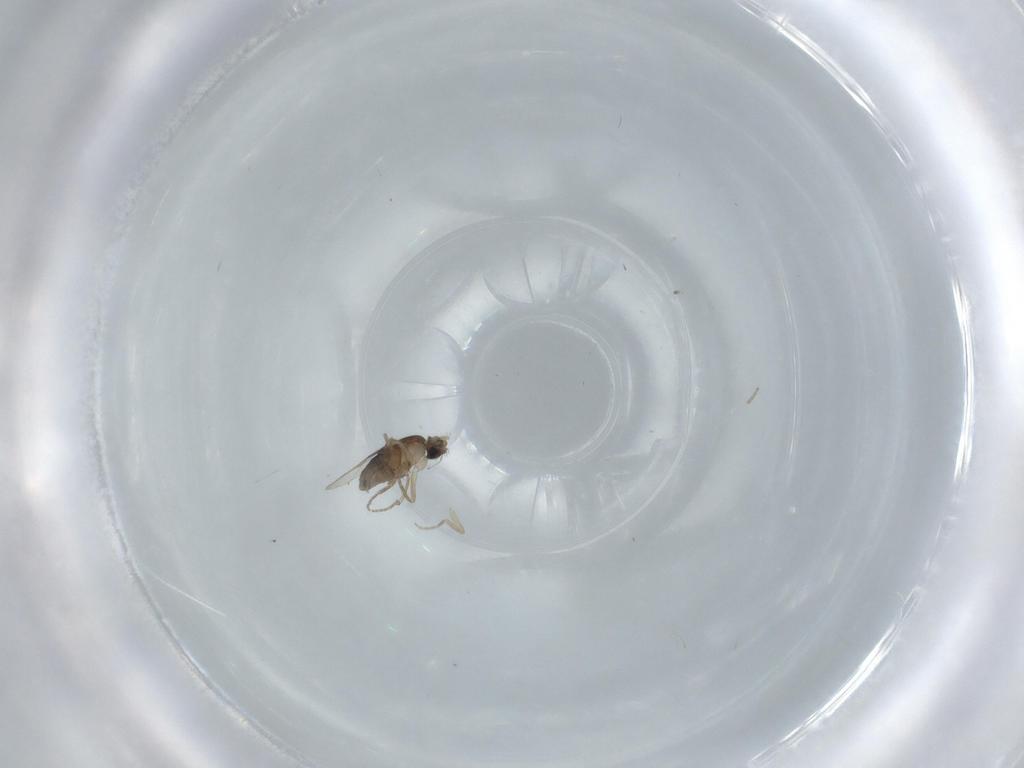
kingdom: Animalia
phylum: Arthropoda
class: Insecta
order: Diptera
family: Phoridae
